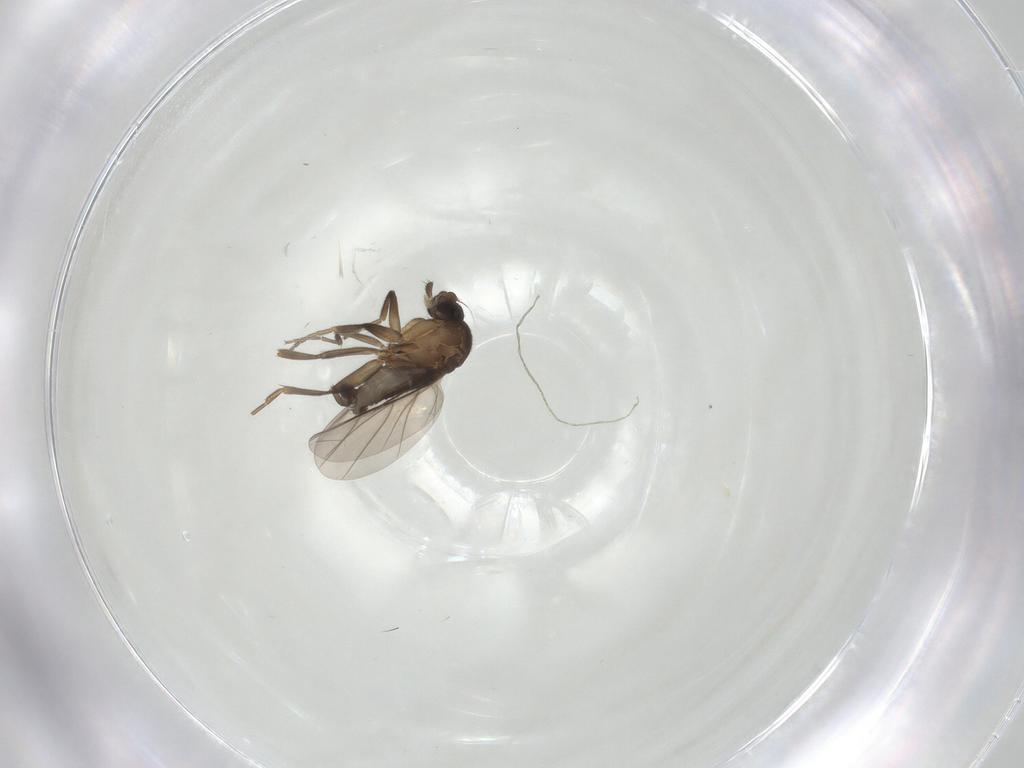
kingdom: Animalia
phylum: Arthropoda
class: Insecta
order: Diptera
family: Phoridae
